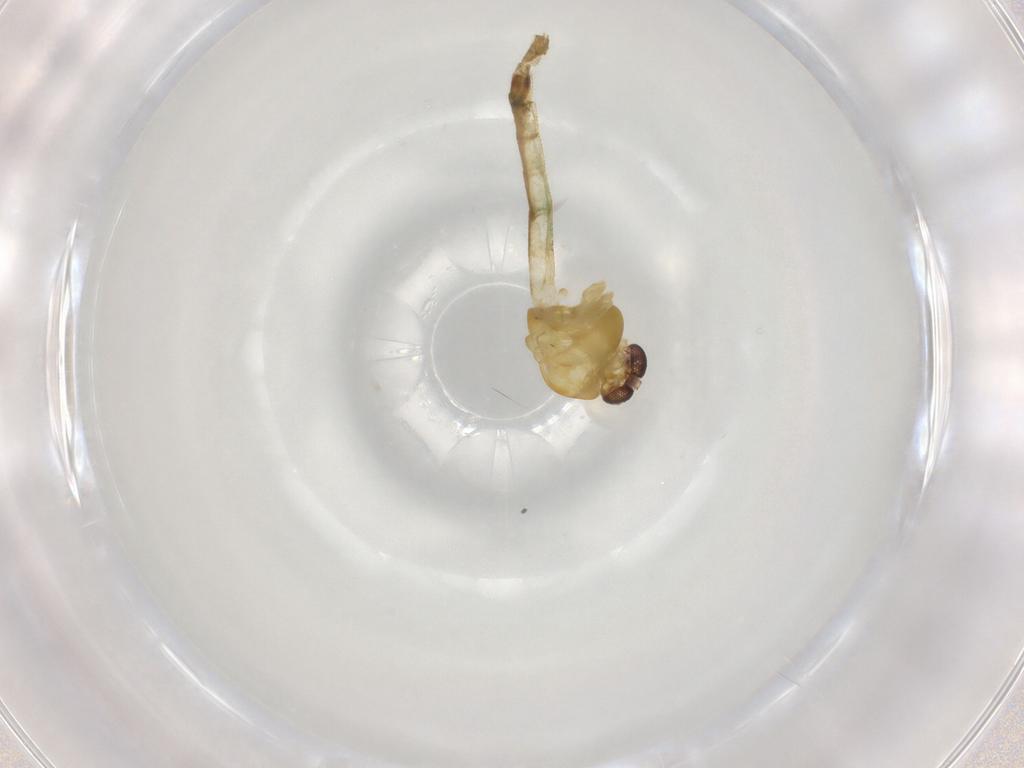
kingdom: Animalia
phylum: Arthropoda
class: Insecta
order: Diptera
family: Chironomidae
